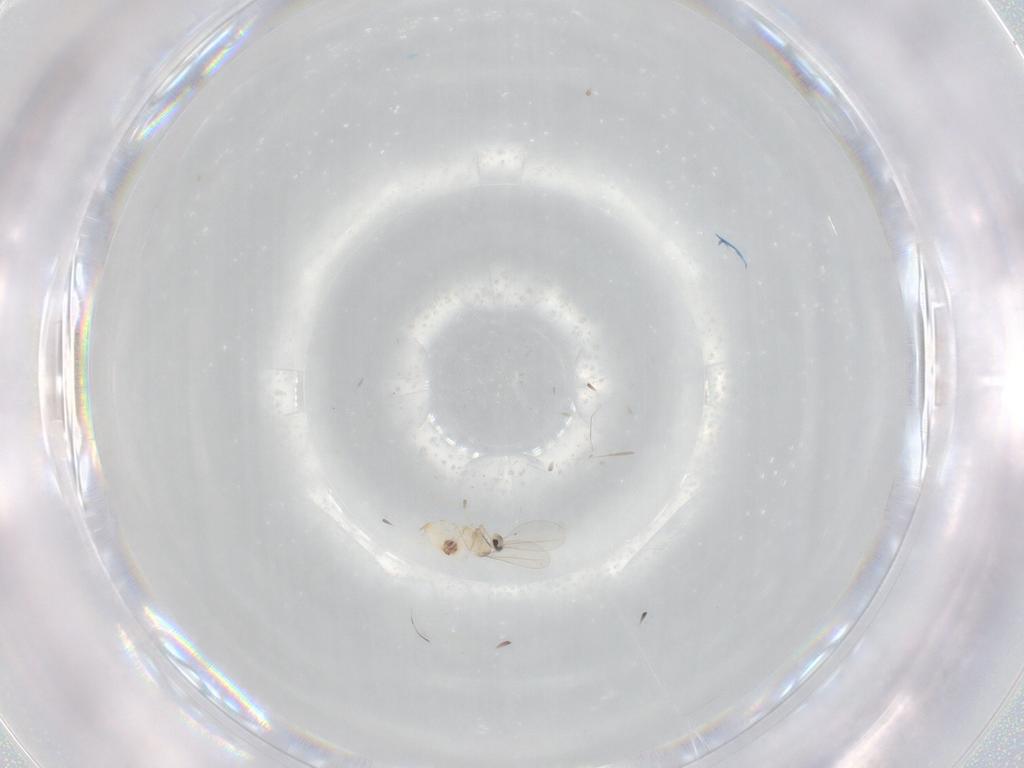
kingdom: Animalia
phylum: Arthropoda
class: Insecta
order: Diptera
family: Cecidomyiidae
